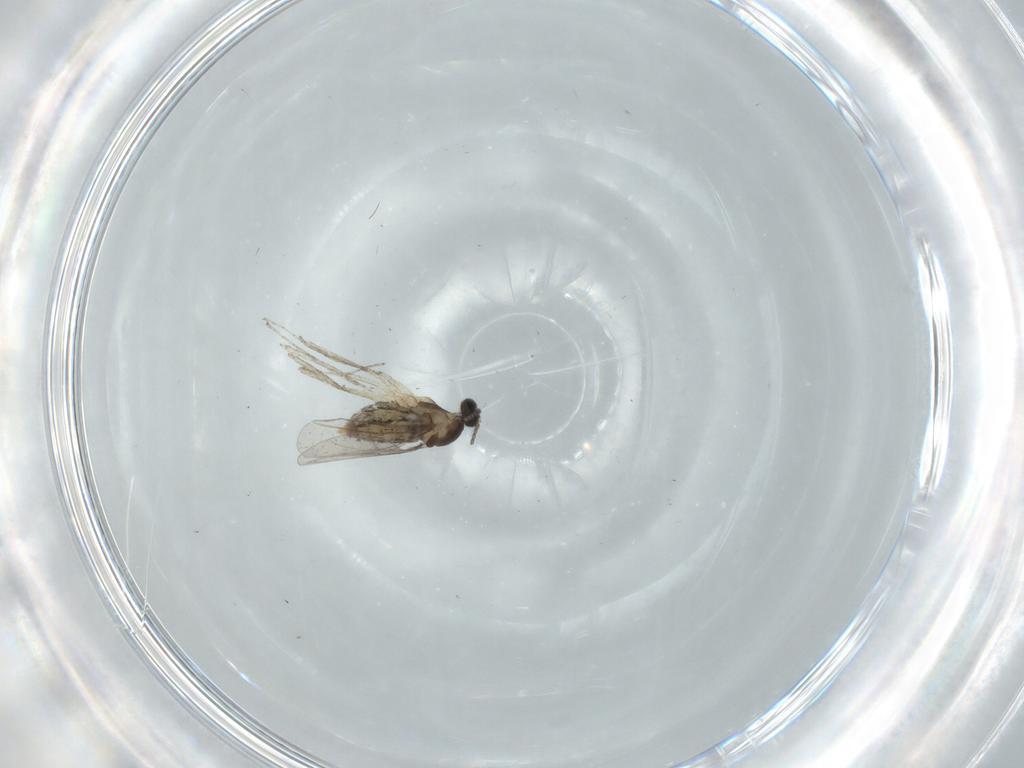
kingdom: Animalia
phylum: Arthropoda
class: Insecta
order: Diptera
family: Cecidomyiidae
